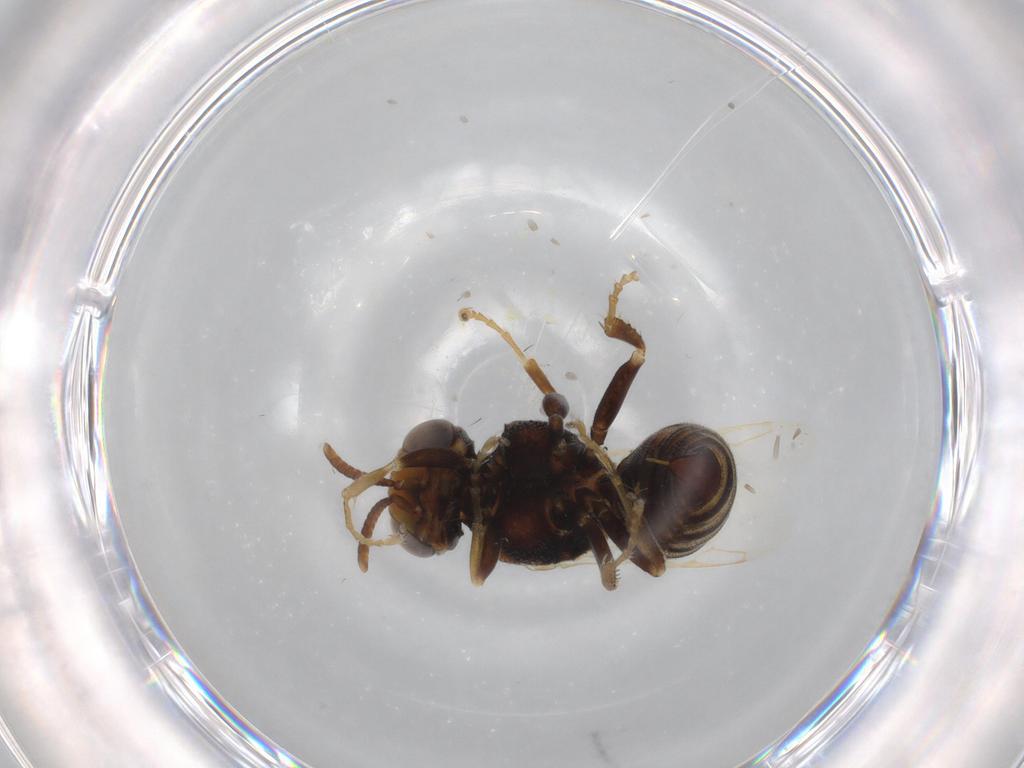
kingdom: Animalia
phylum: Arthropoda
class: Insecta
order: Hymenoptera
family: Crabronidae
